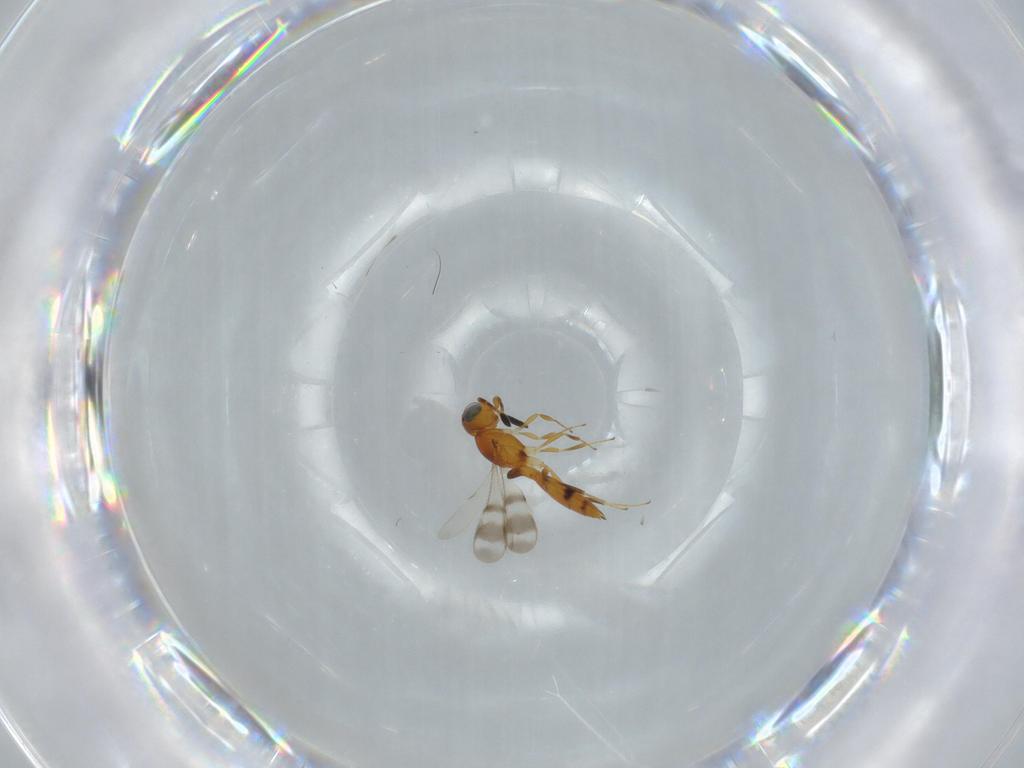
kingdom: Animalia
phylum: Arthropoda
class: Insecta
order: Hymenoptera
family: Scelionidae
